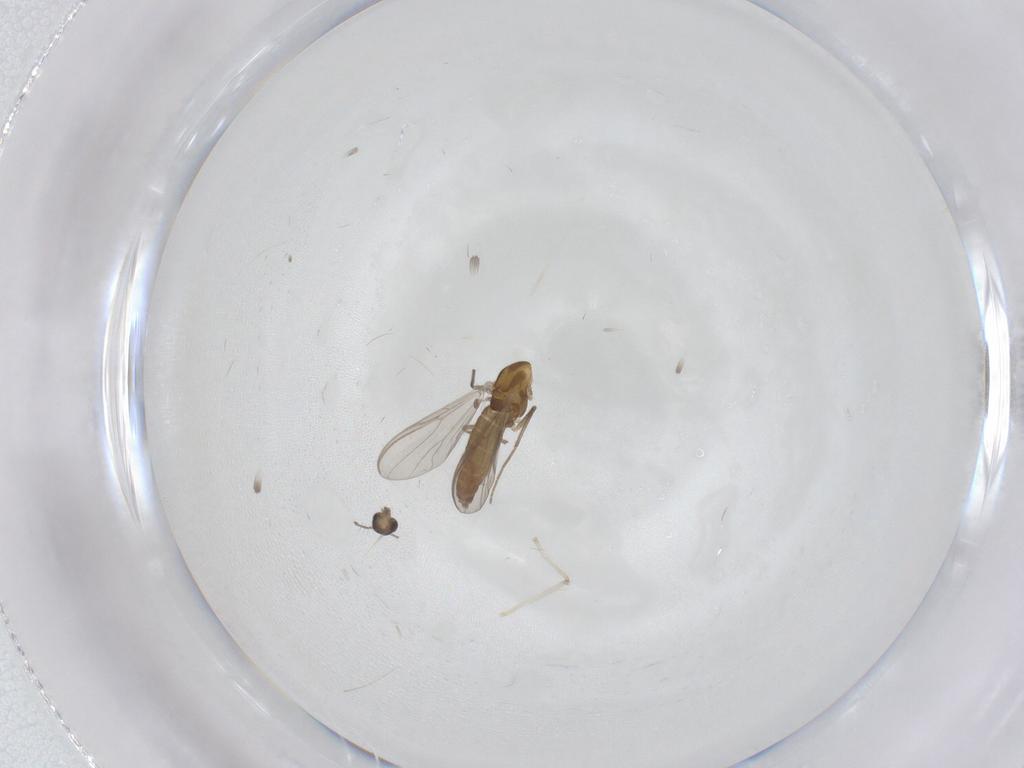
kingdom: Animalia
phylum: Arthropoda
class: Insecta
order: Diptera
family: Chironomidae
